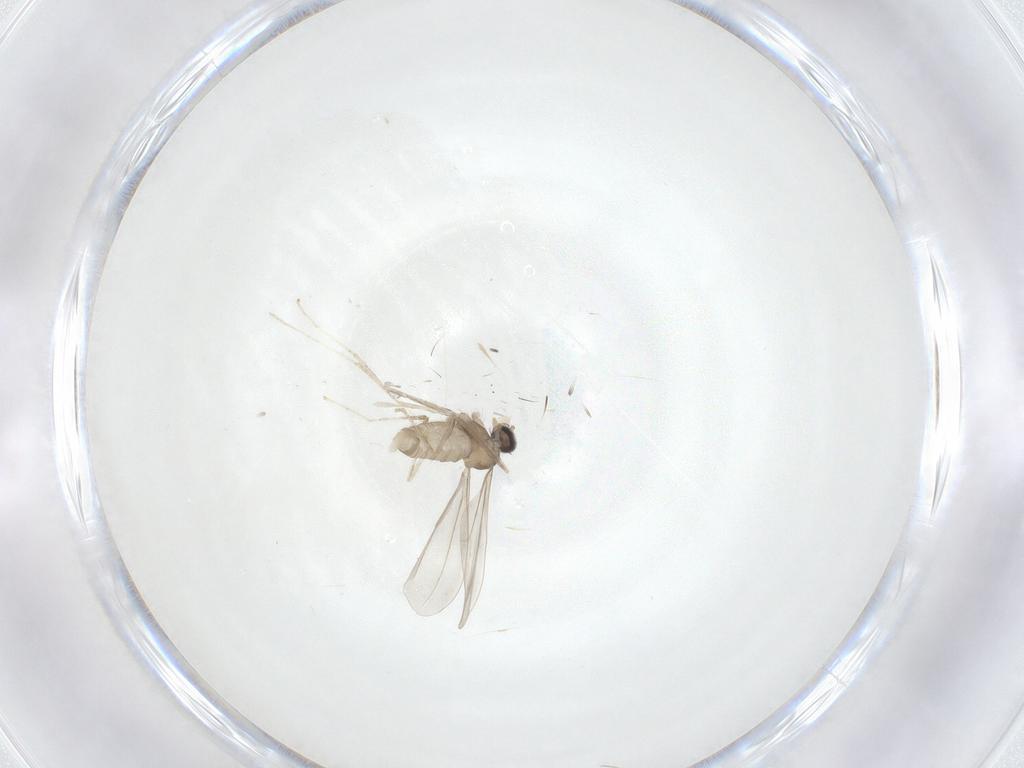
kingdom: Animalia
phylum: Arthropoda
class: Insecta
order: Diptera
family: Cecidomyiidae
